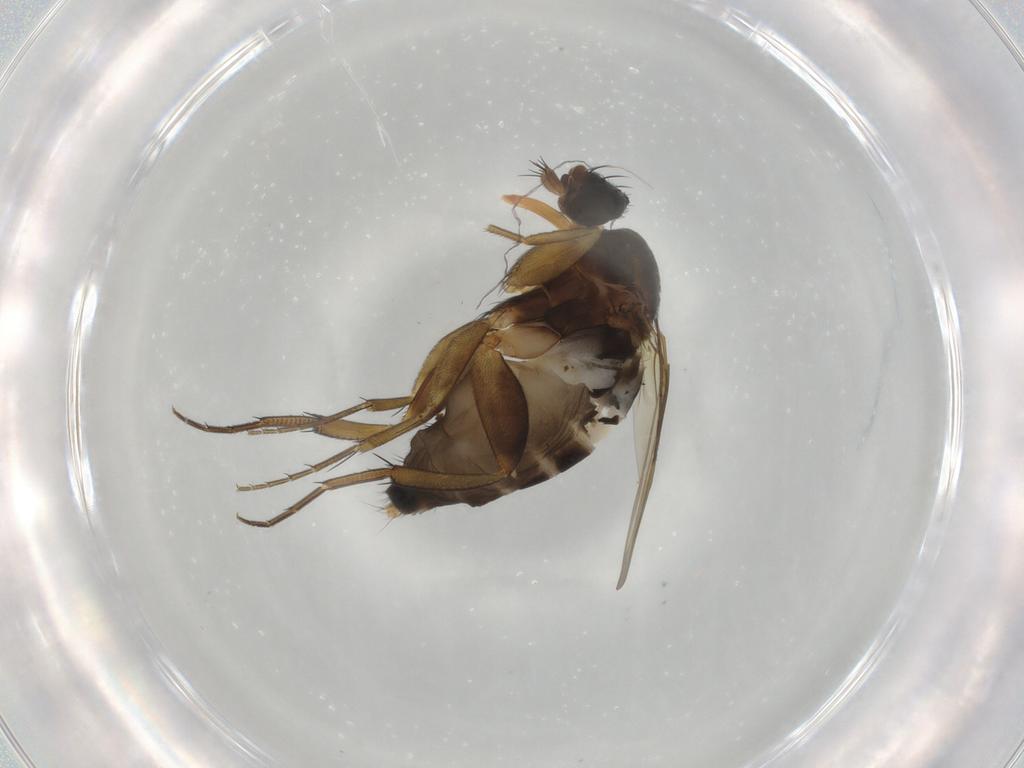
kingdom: Animalia
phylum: Arthropoda
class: Insecta
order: Diptera
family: Phoridae
